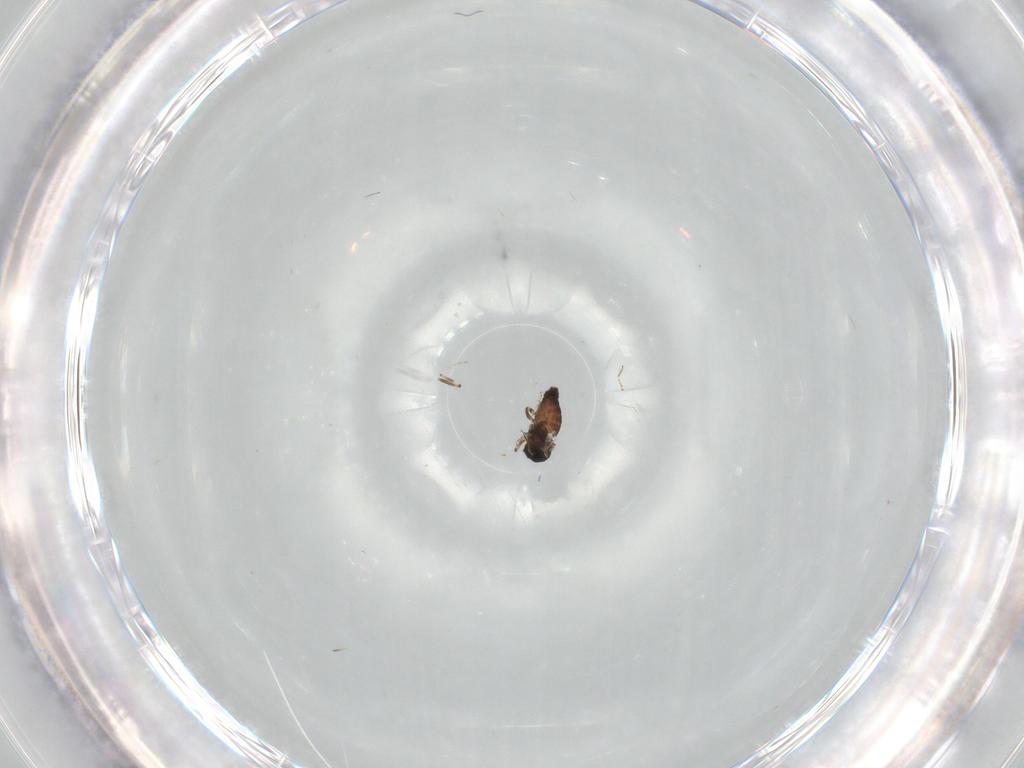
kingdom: Animalia
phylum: Arthropoda
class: Insecta
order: Diptera
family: Ceratopogonidae
